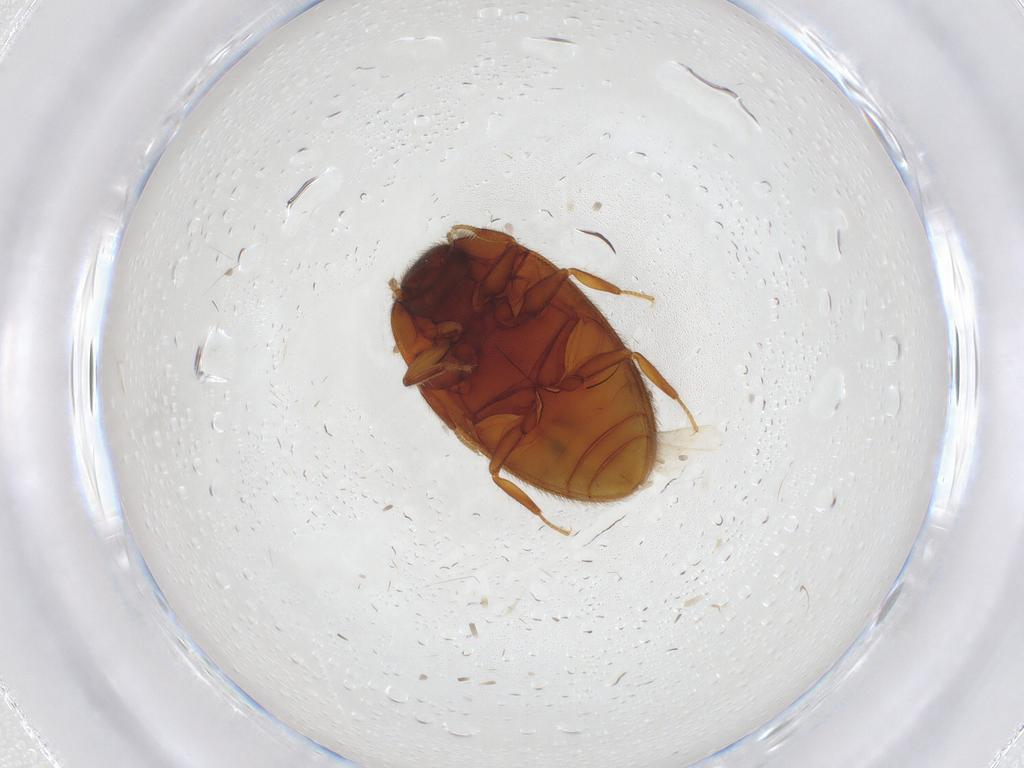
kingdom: Animalia
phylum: Arthropoda
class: Insecta
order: Coleoptera
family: Limnichidae
